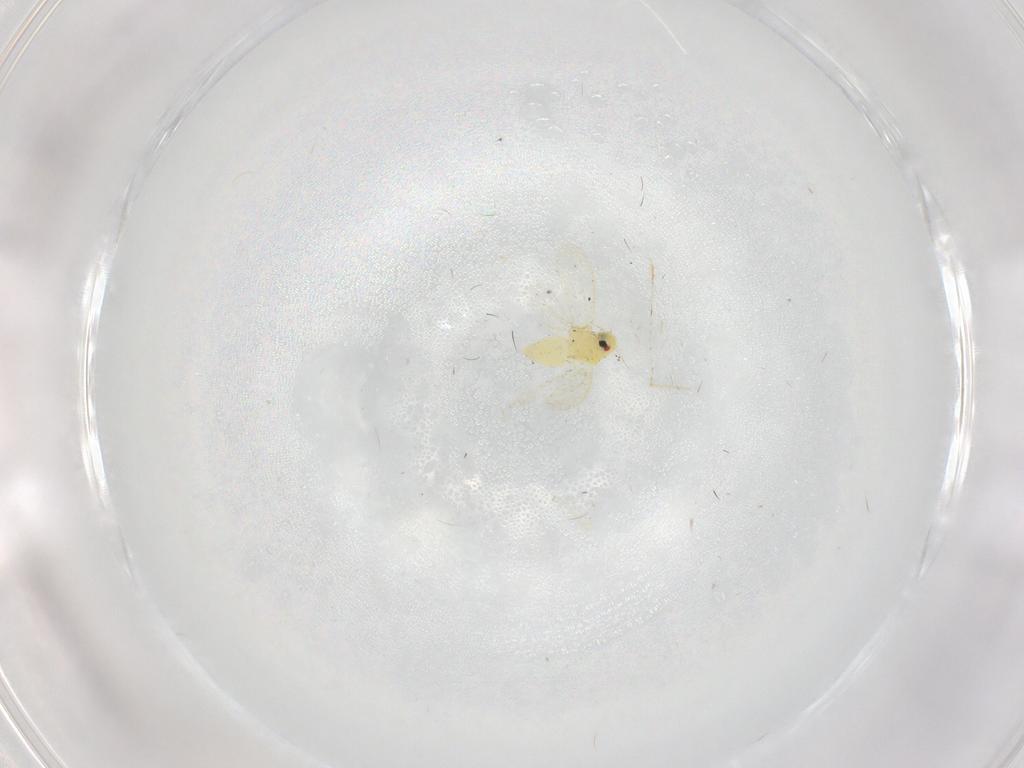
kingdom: Animalia
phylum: Arthropoda
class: Insecta
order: Hemiptera
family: Aleyrodidae
